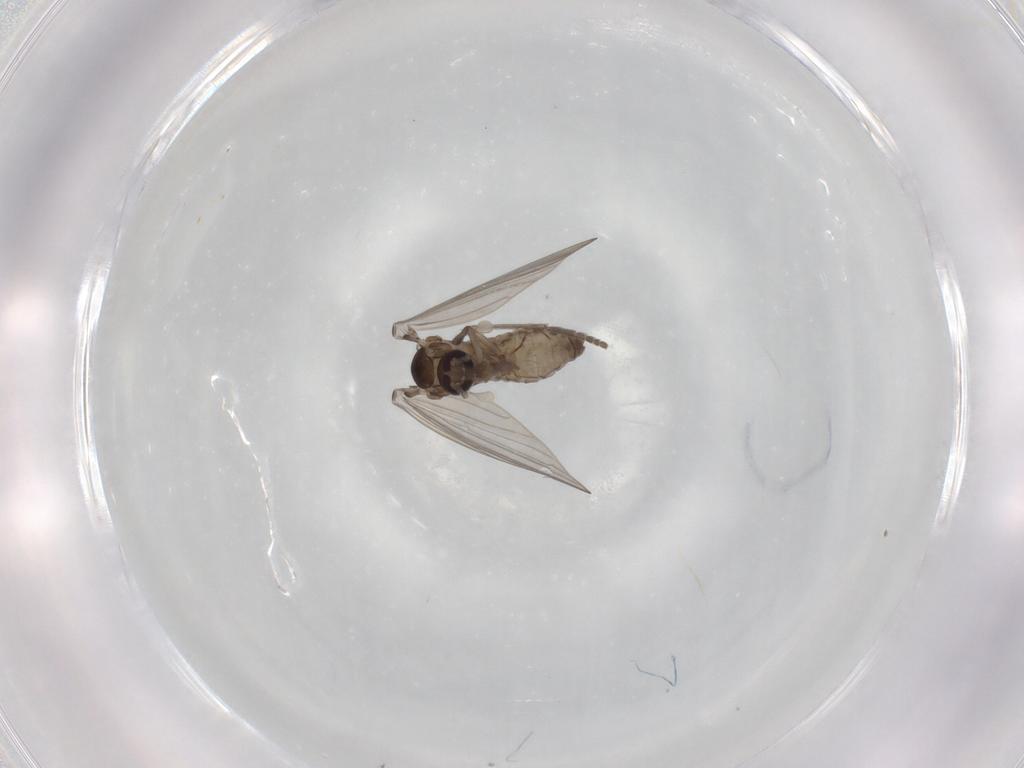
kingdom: Animalia
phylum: Arthropoda
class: Insecta
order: Diptera
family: Psychodidae
